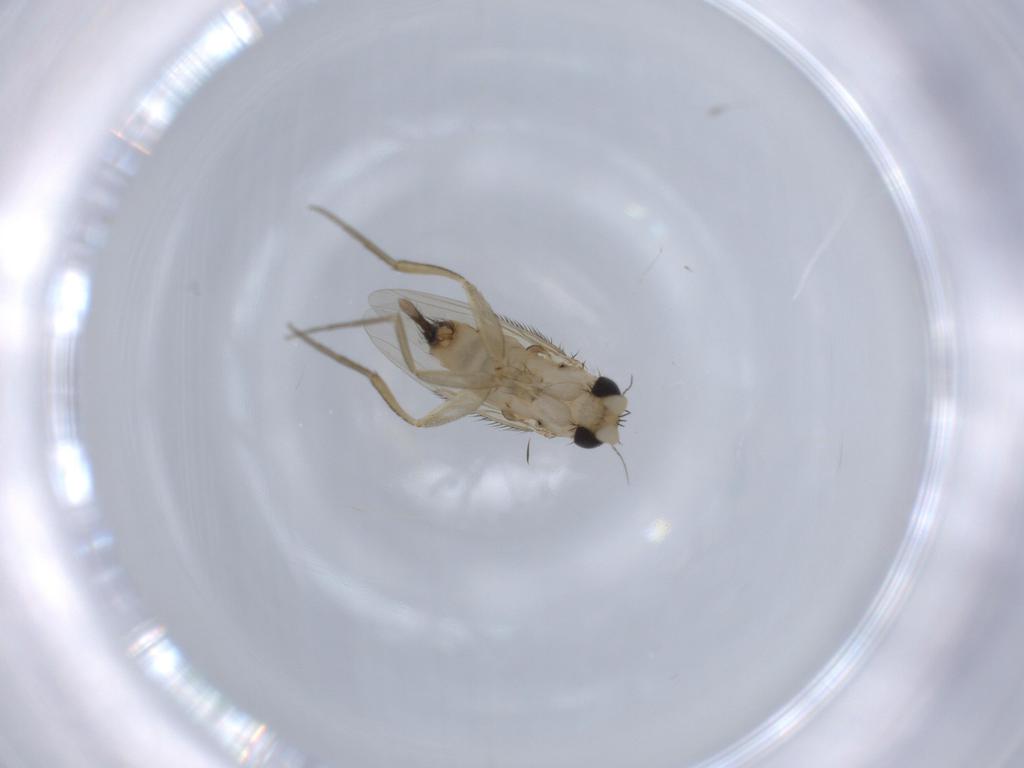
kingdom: Animalia
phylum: Arthropoda
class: Insecta
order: Diptera
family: Phoridae
